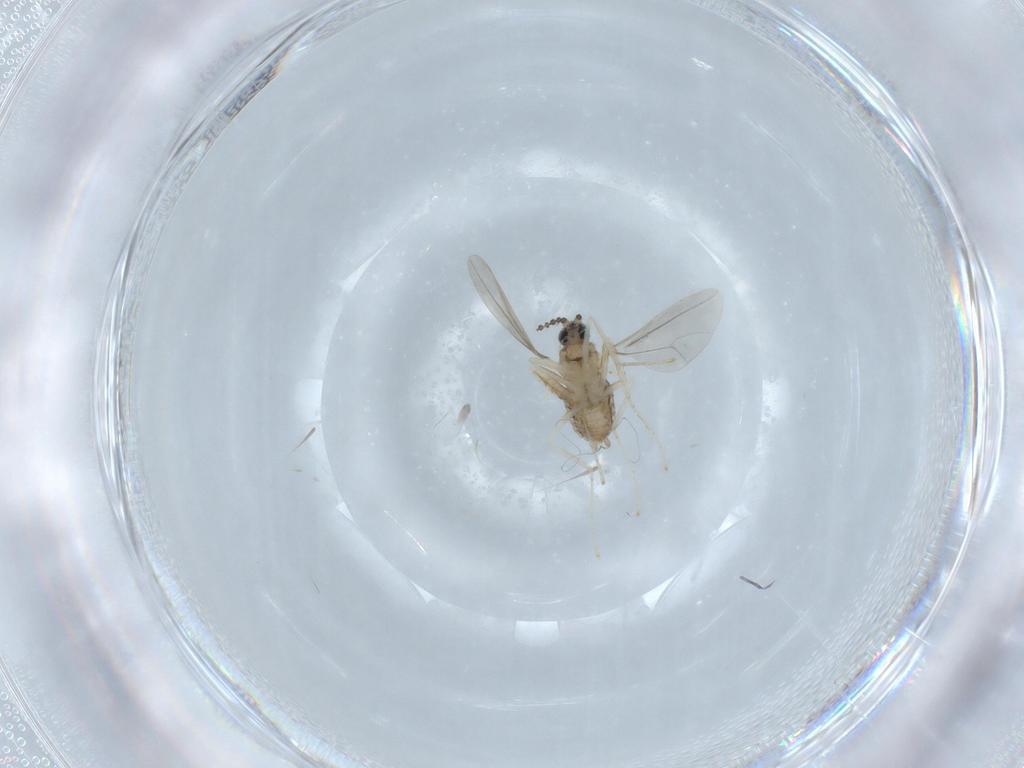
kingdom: Animalia
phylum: Arthropoda
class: Insecta
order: Diptera
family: Cecidomyiidae
